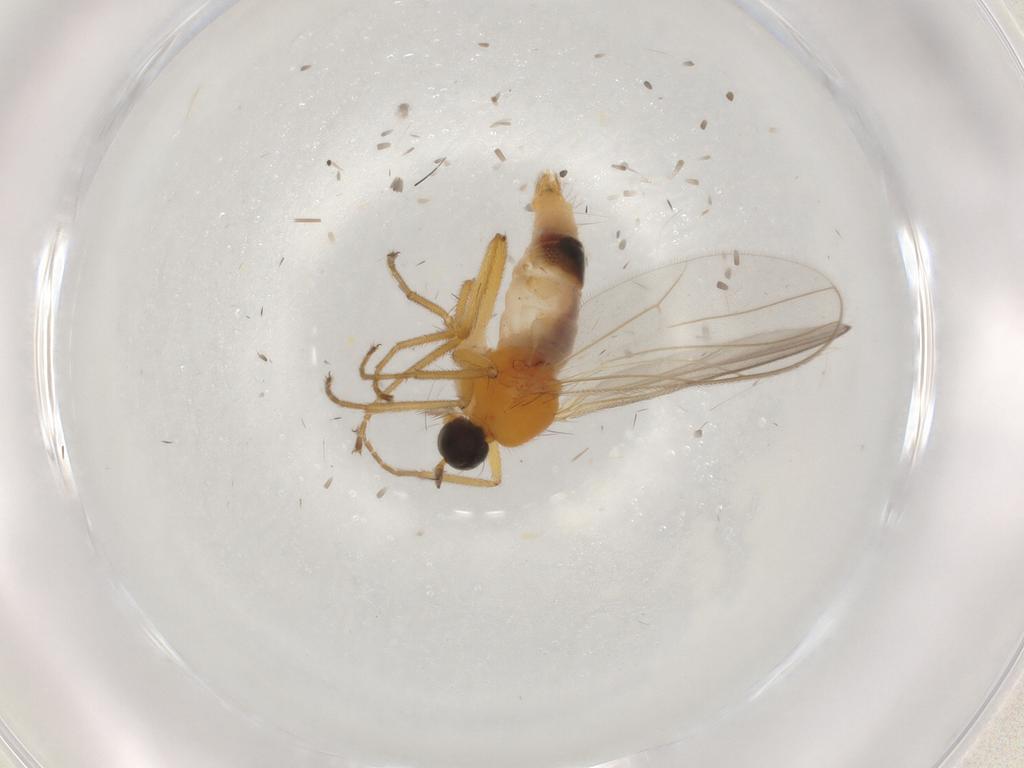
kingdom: Animalia
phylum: Arthropoda
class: Insecta
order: Diptera
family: Hybotidae
